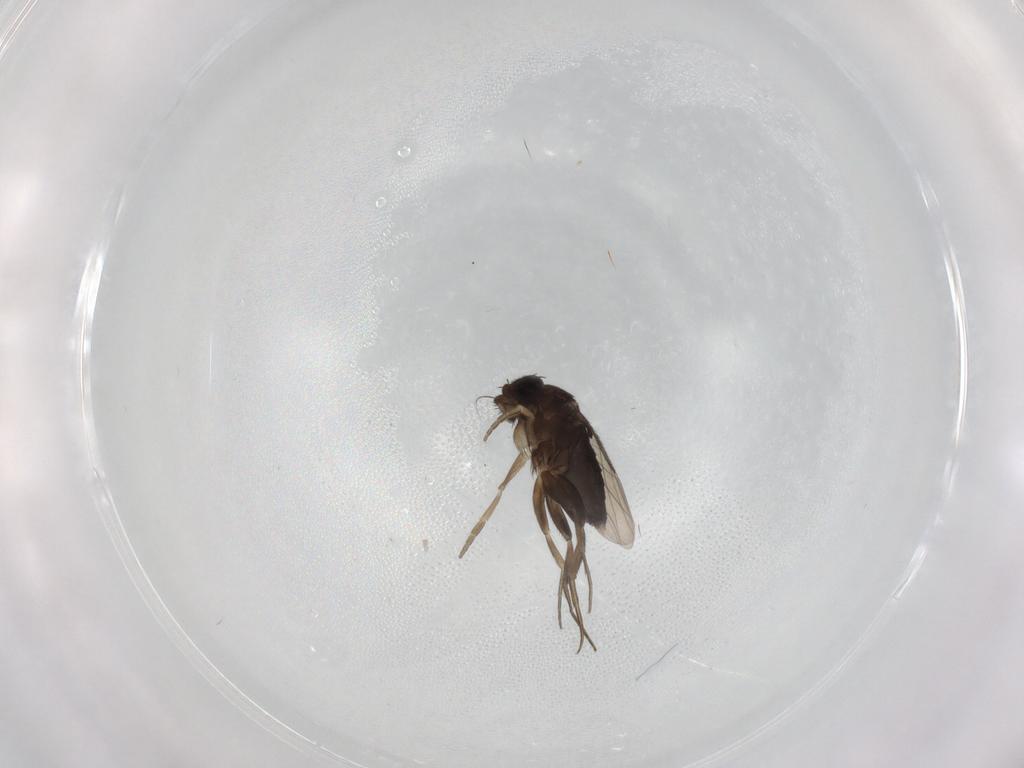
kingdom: Animalia
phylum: Arthropoda
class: Insecta
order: Diptera
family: Phoridae
